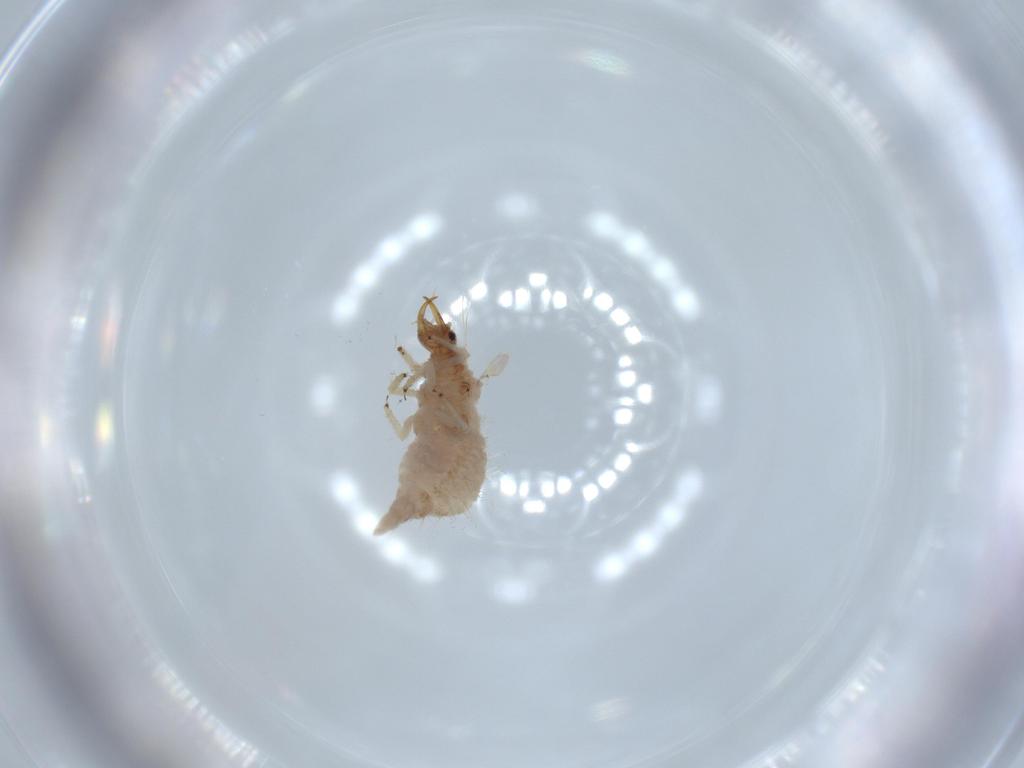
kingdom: Animalia
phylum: Arthropoda
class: Insecta
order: Neuroptera
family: Chrysopidae
